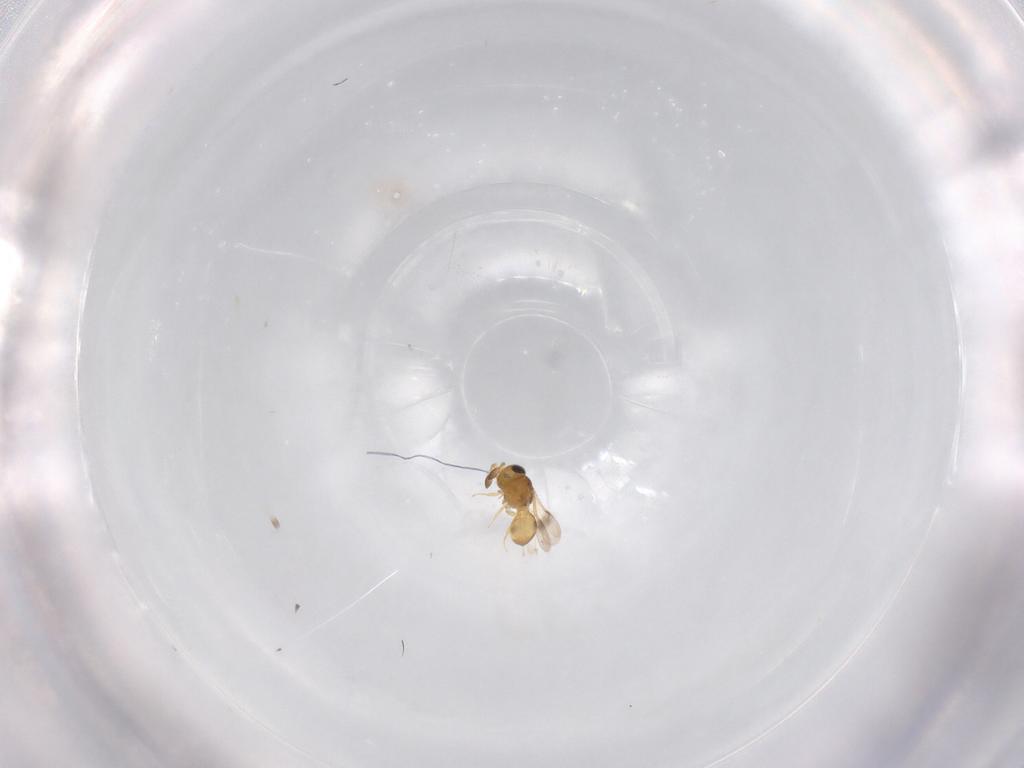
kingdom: Animalia
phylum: Arthropoda
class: Insecta
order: Hymenoptera
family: Scelionidae
